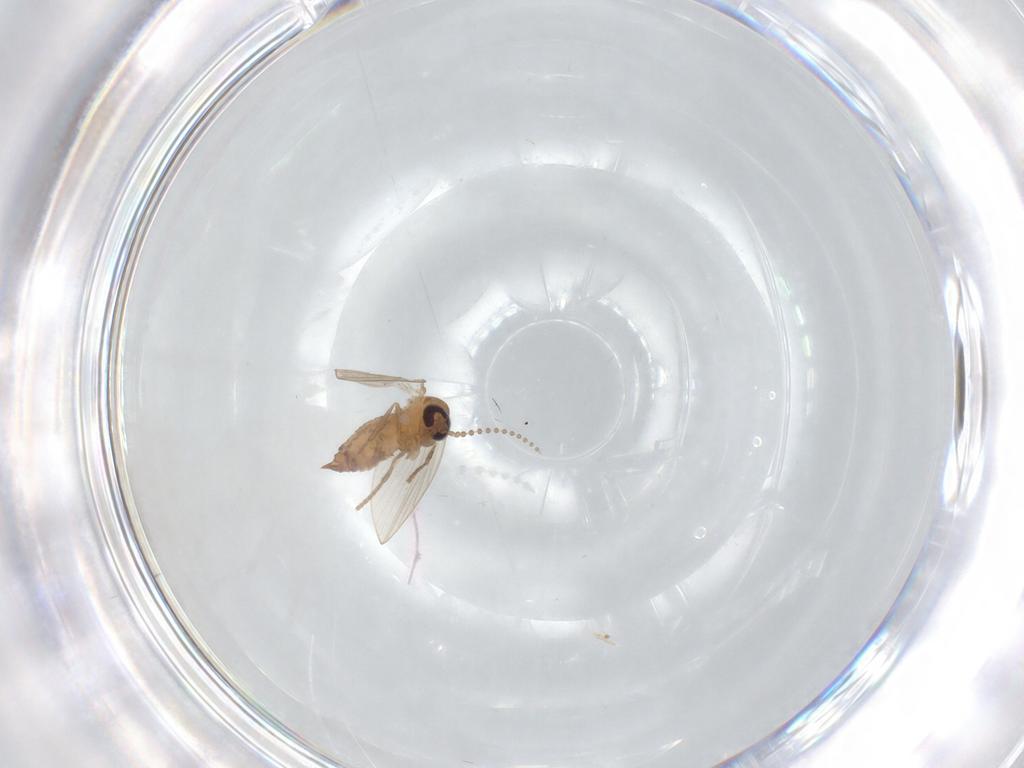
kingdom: Animalia
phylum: Arthropoda
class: Insecta
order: Diptera
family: Psychodidae
